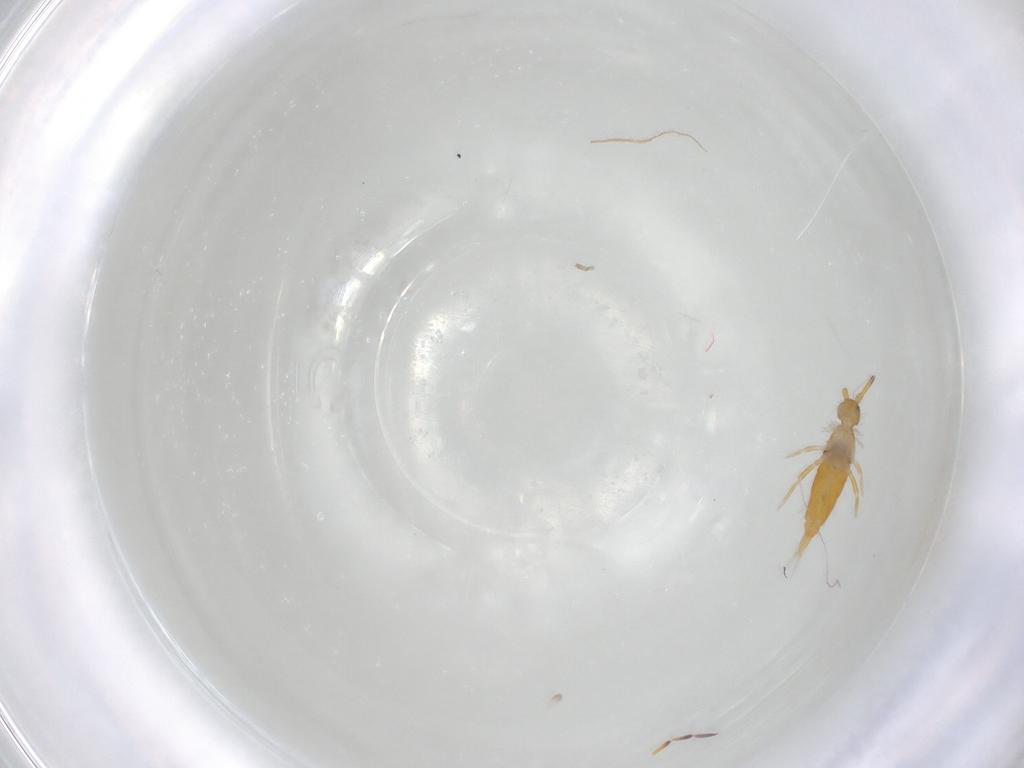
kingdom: Animalia
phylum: Arthropoda
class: Collembola
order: Entomobryomorpha
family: Entomobryidae
